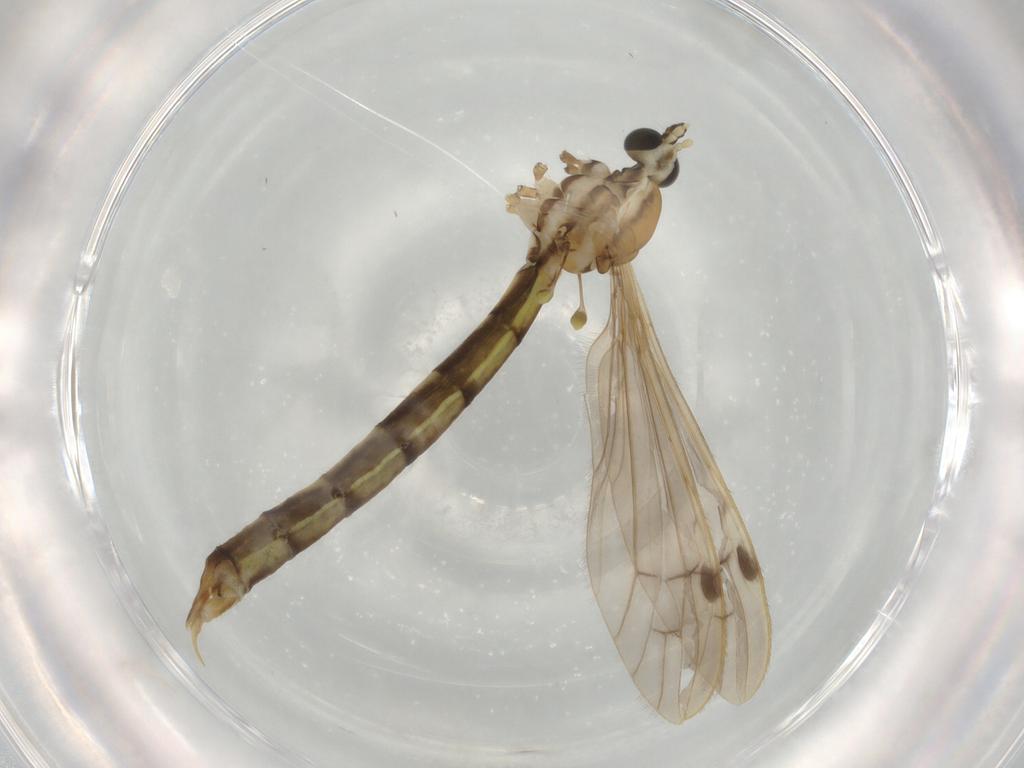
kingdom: Animalia
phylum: Arthropoda
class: Insecta
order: Diptera
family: Limoniidae
